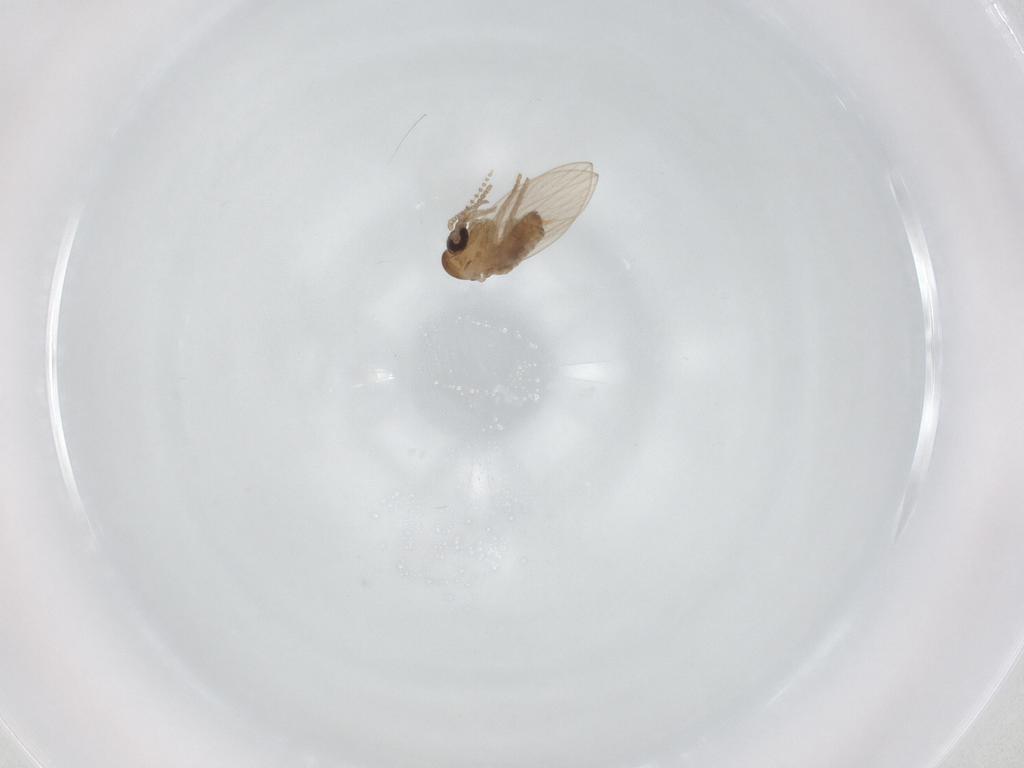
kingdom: Animalia
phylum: Arthropoda
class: Insecta
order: Diptera
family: Psychodidae
